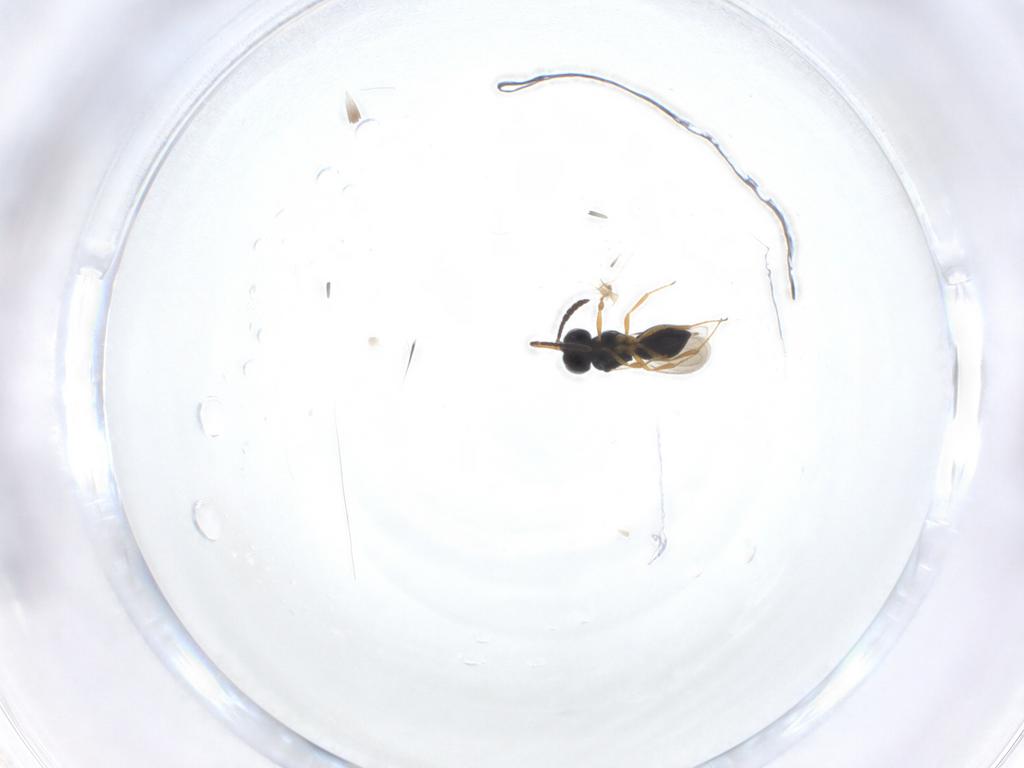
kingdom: Animalia
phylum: Arthropoda
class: Insecta
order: Hymenoptera
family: Scelionidae
